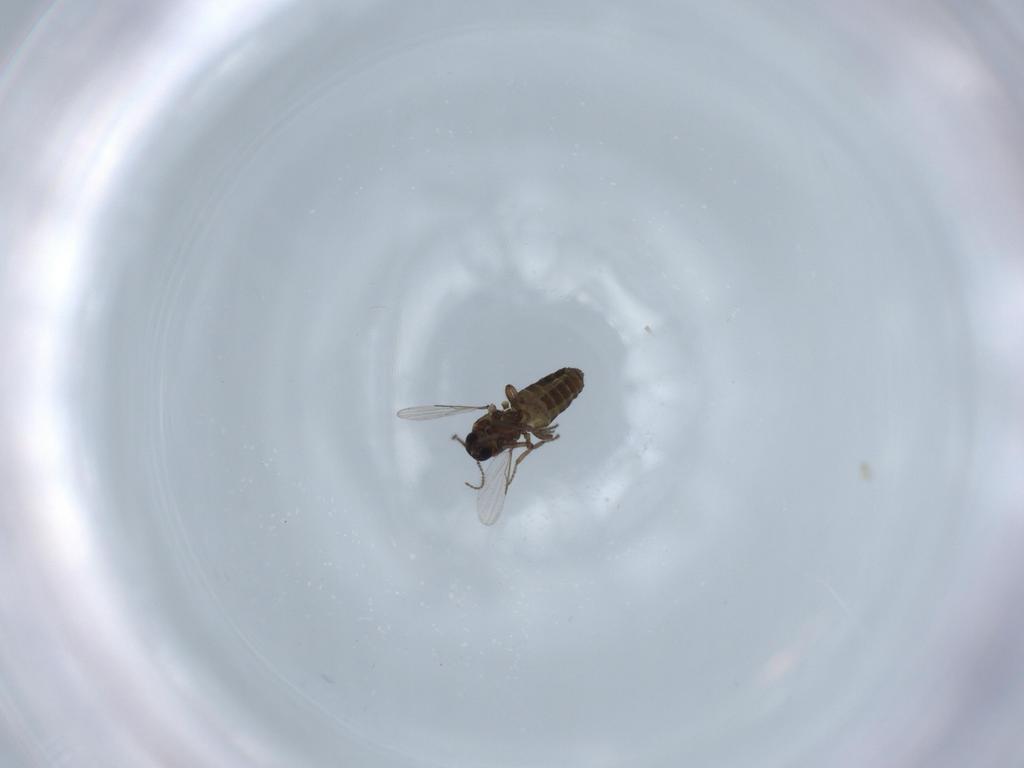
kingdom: Animalia
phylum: Arthropoda
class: Insecta
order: Diptera
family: Cecidomyiidae
